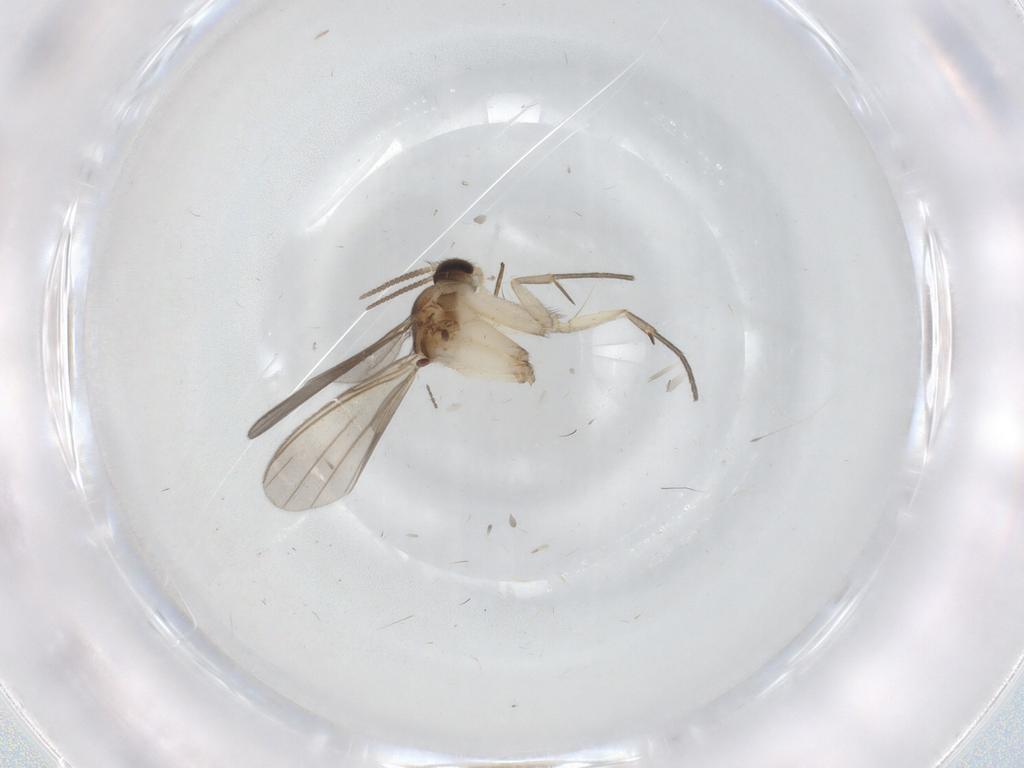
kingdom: Animalia
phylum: Arthropoda
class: Insecta
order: Diptera
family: Mycetophilidae
